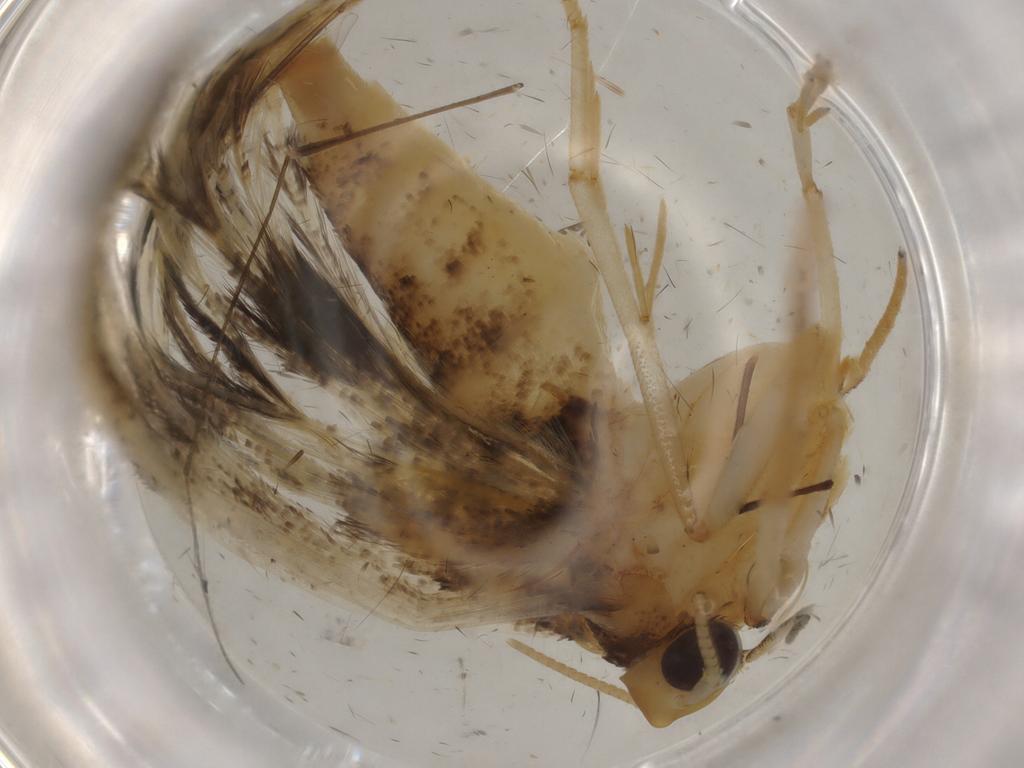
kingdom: Animalia
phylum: Arthropoda
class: Insecta
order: Lepidoptera
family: Gelechiidae
